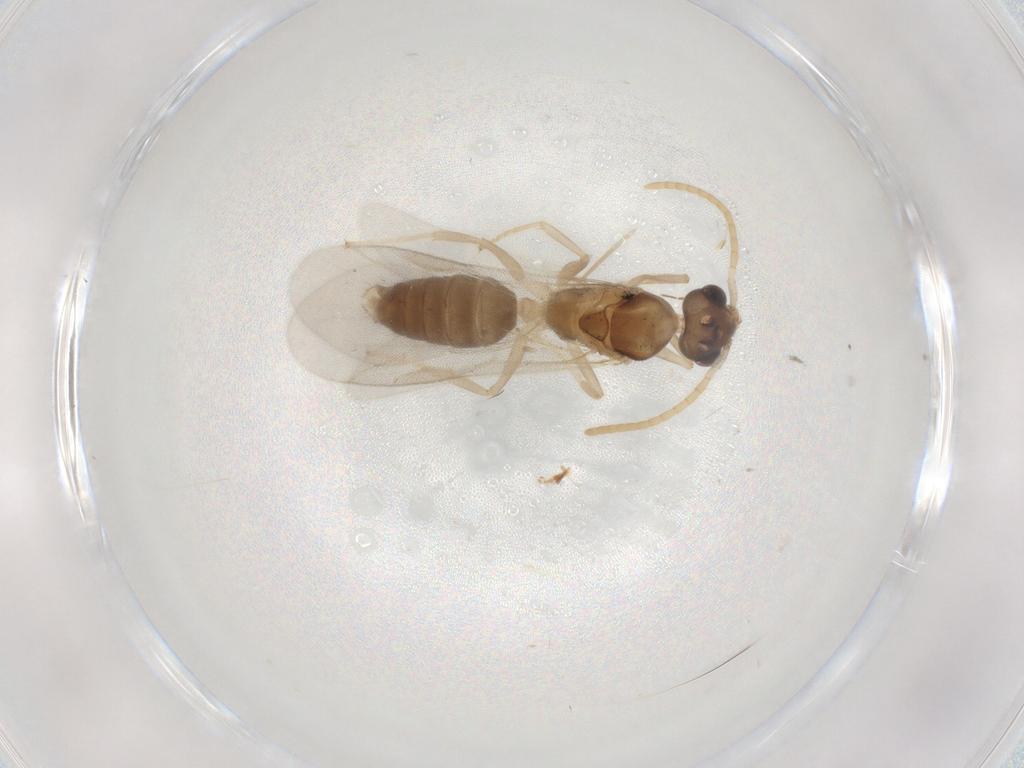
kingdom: Animalia
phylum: Arthropoda
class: Insecta
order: Hymenoptera
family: Formicidae
